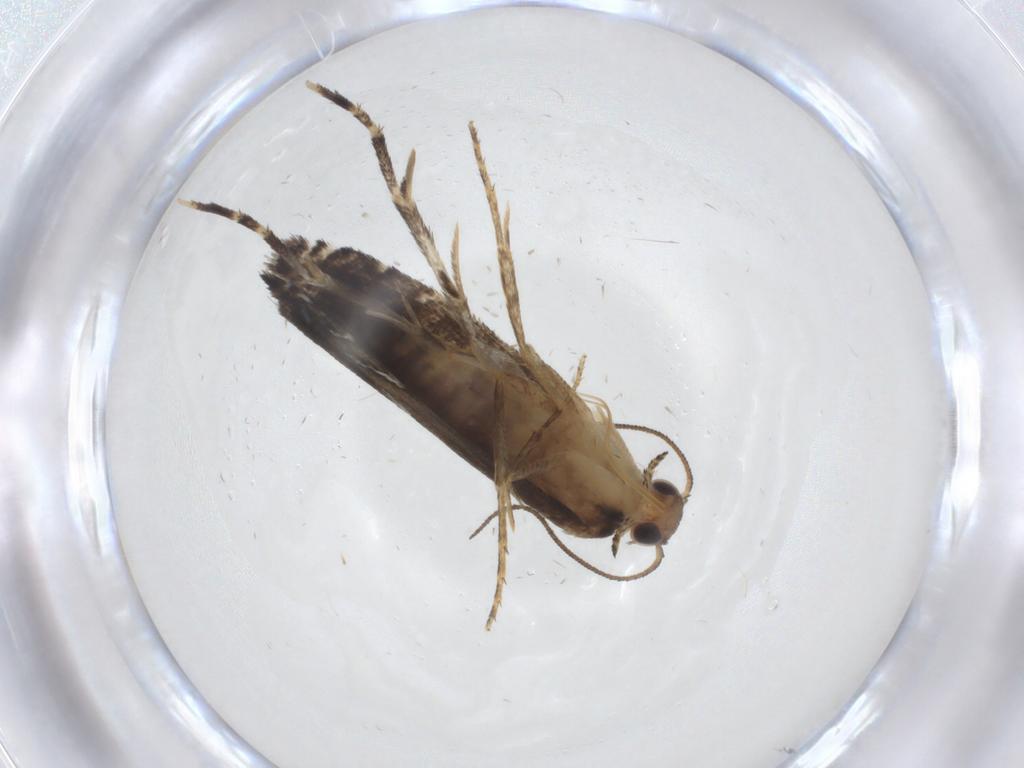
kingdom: Animalia
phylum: Arthropoda
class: Insecta
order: Lepidoptera
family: Glyphipterigidae
